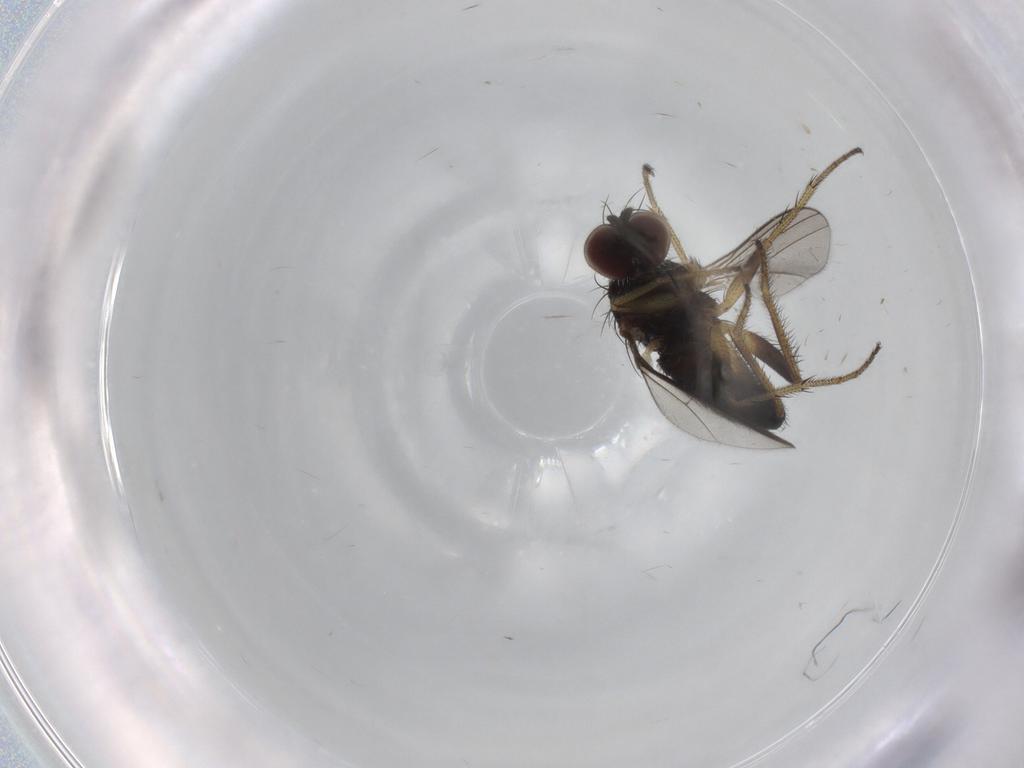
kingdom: Animalia
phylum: Arthropoda
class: Insecta
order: Diptera
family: Dolichopodidae
